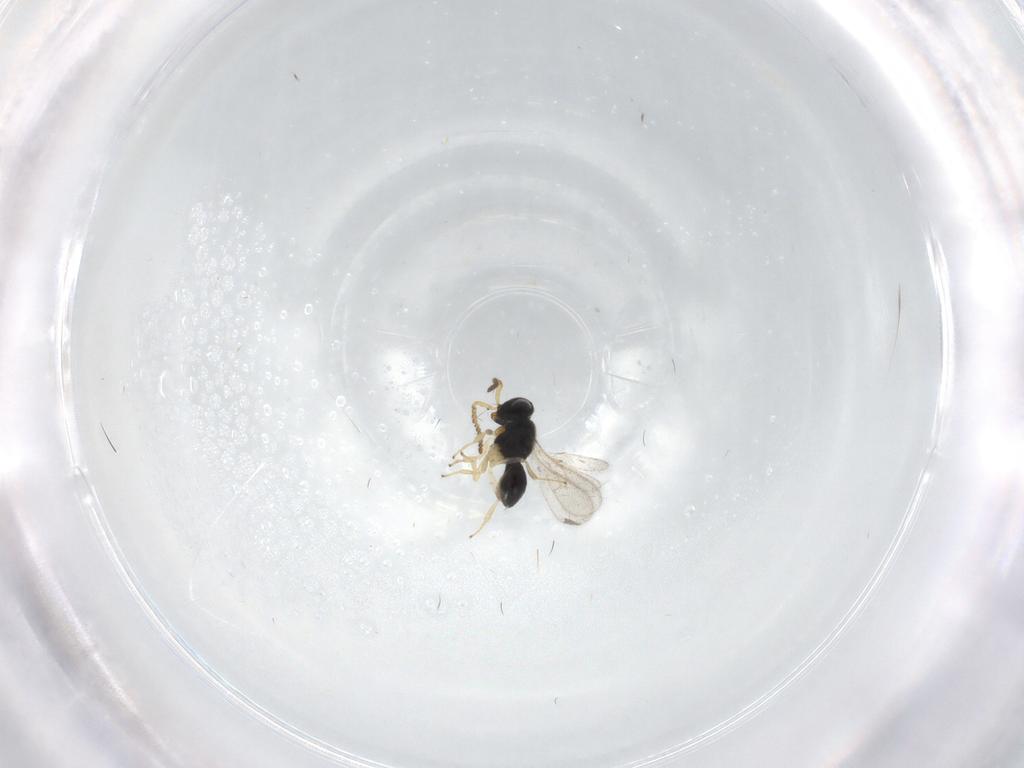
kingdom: Animalia
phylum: Arthropoda
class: Insecta
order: Hymenoptera
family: Scelionidae
